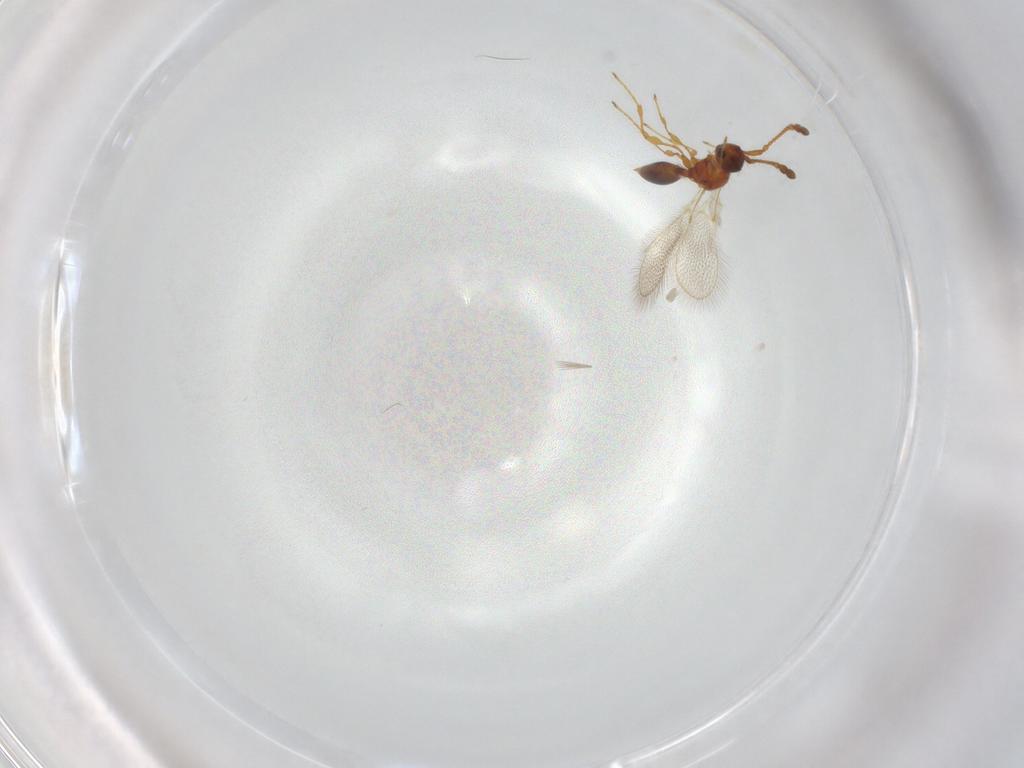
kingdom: Animalia
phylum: Arthropoda
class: Insecta
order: Hymenoptera
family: Diapriidae
